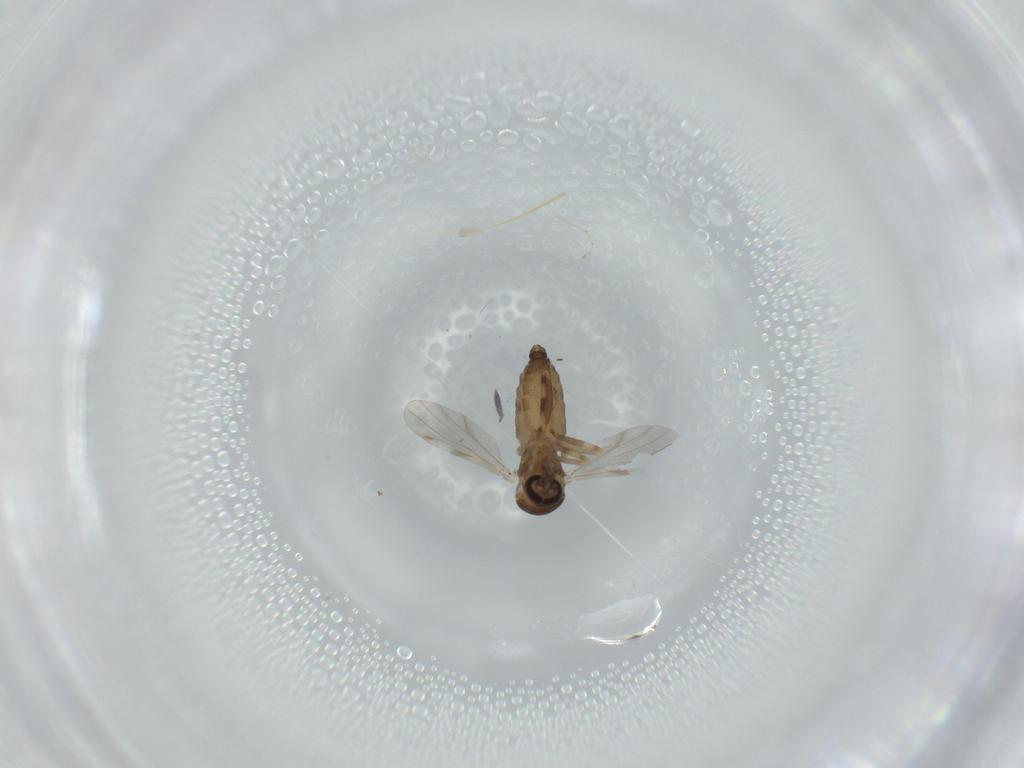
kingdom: Animalia
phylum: Arthropoda
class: Insecta
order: Diptera
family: Ceratopogonidae
